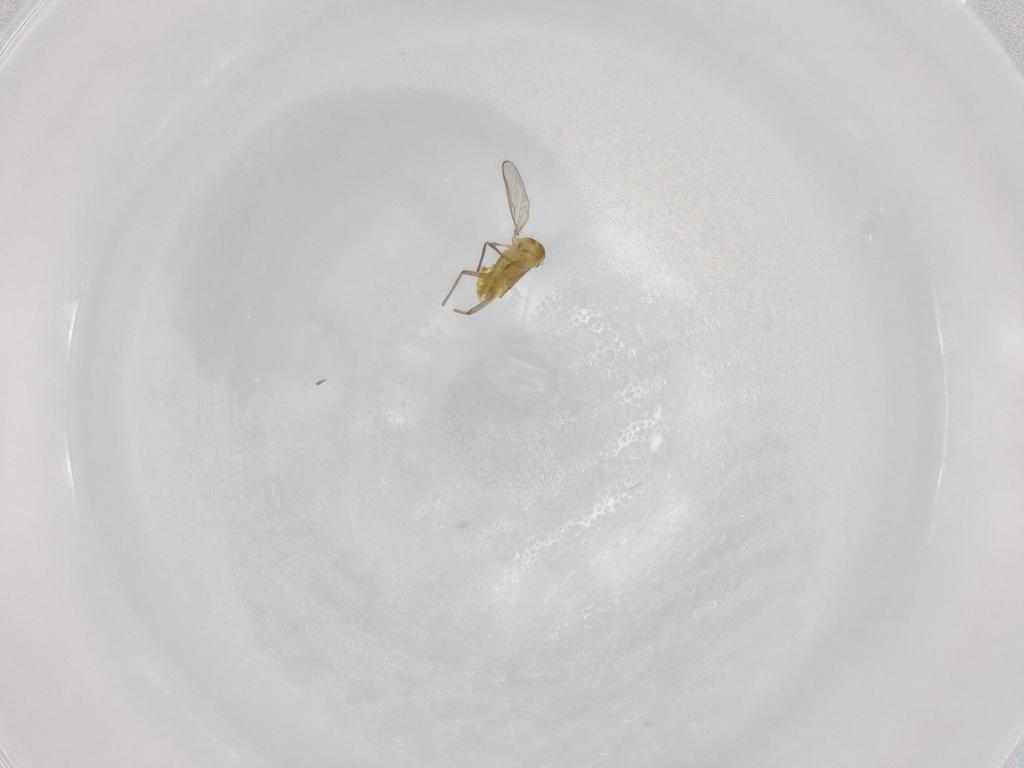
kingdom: Animalia
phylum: Arthropoda
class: Insecta
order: Diptera
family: Chironomidae
